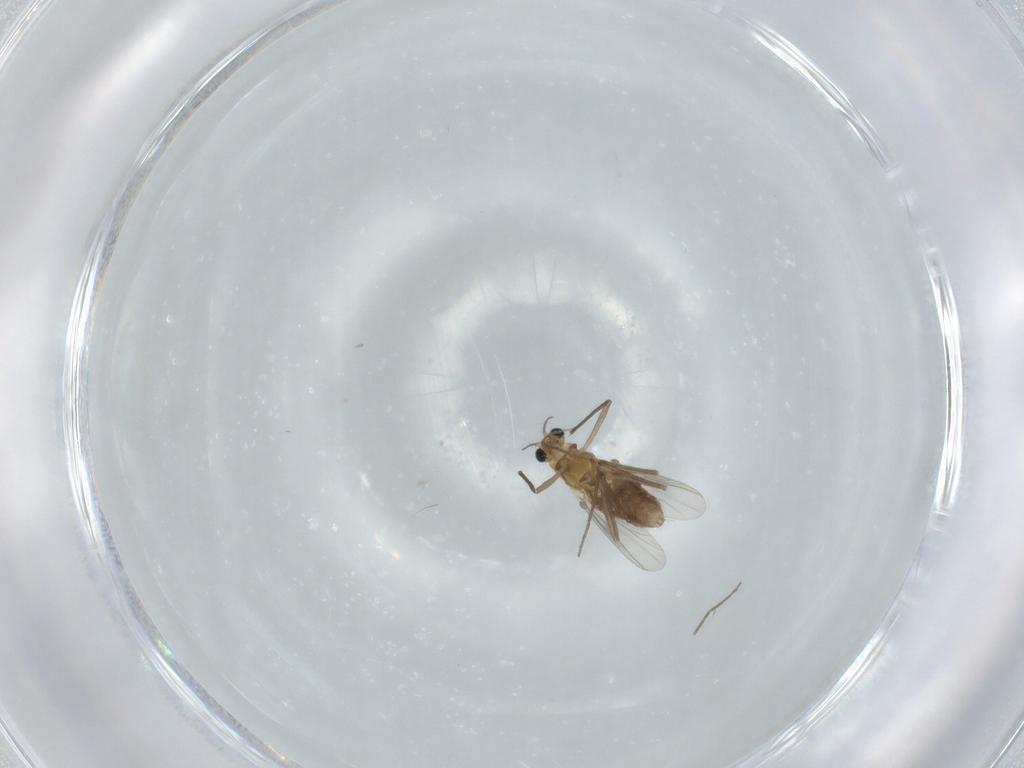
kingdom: Animalia
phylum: Arthropoda
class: Insecta
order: Diptera
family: Chironomidae
